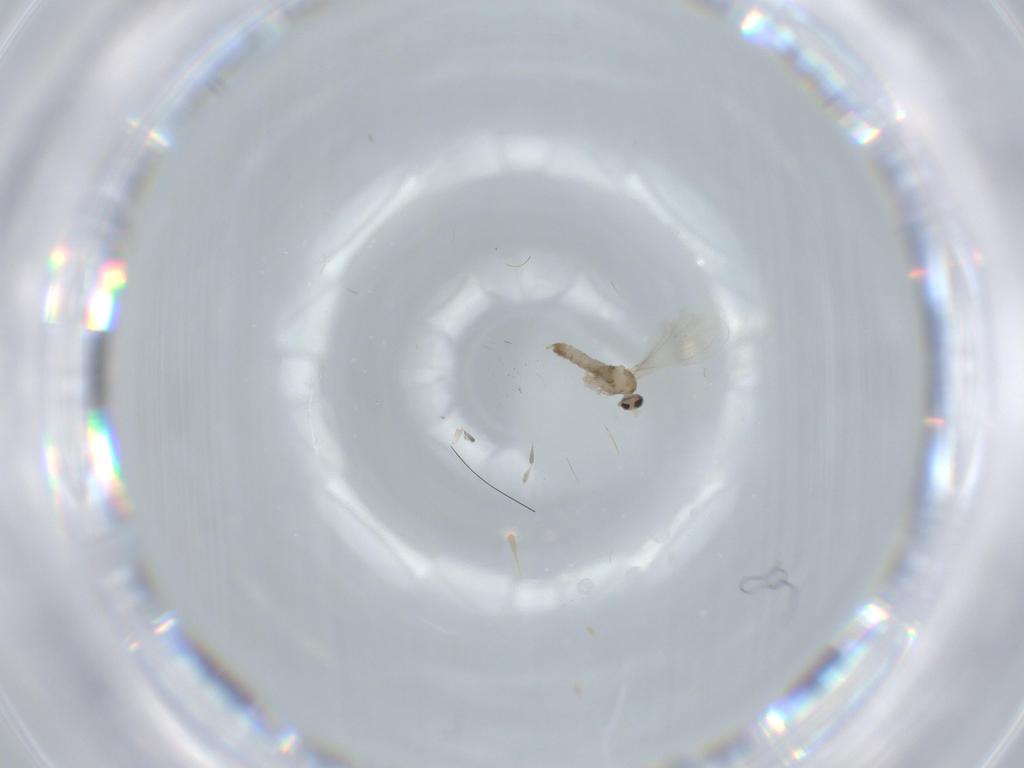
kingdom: Animalia
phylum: Arthropoda
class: Insecta
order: Diptera
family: Cecidomyiidae
